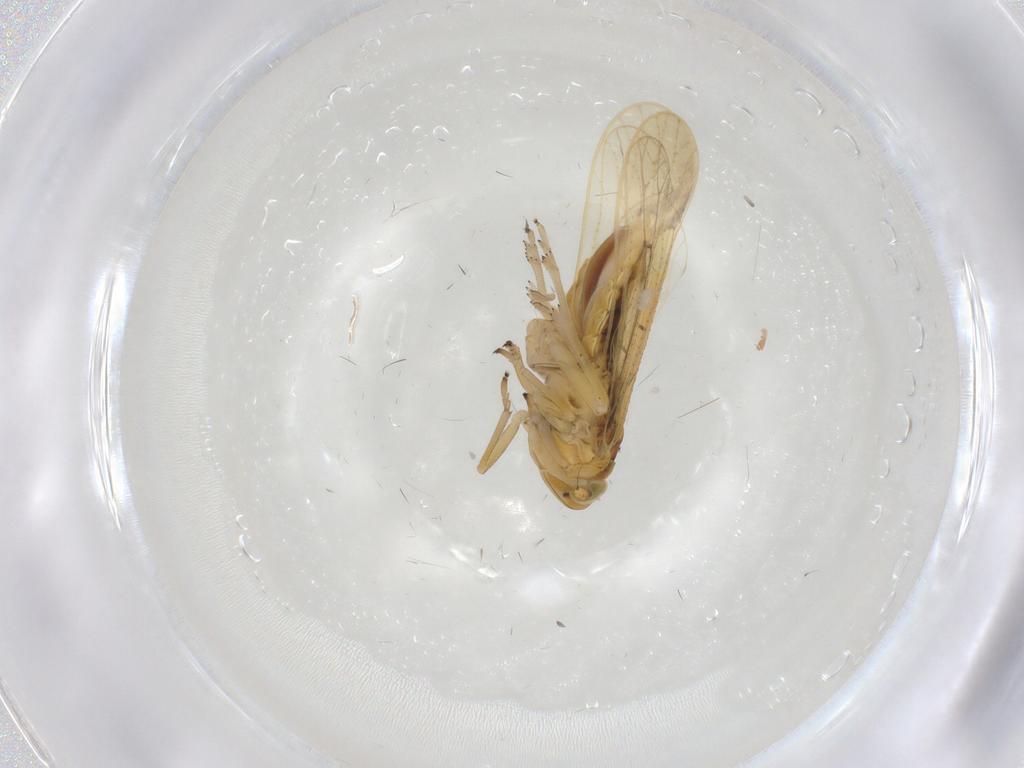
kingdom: Animalia
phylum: Arthropoda
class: Insecta
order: Hemiptera
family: Delphacidae
